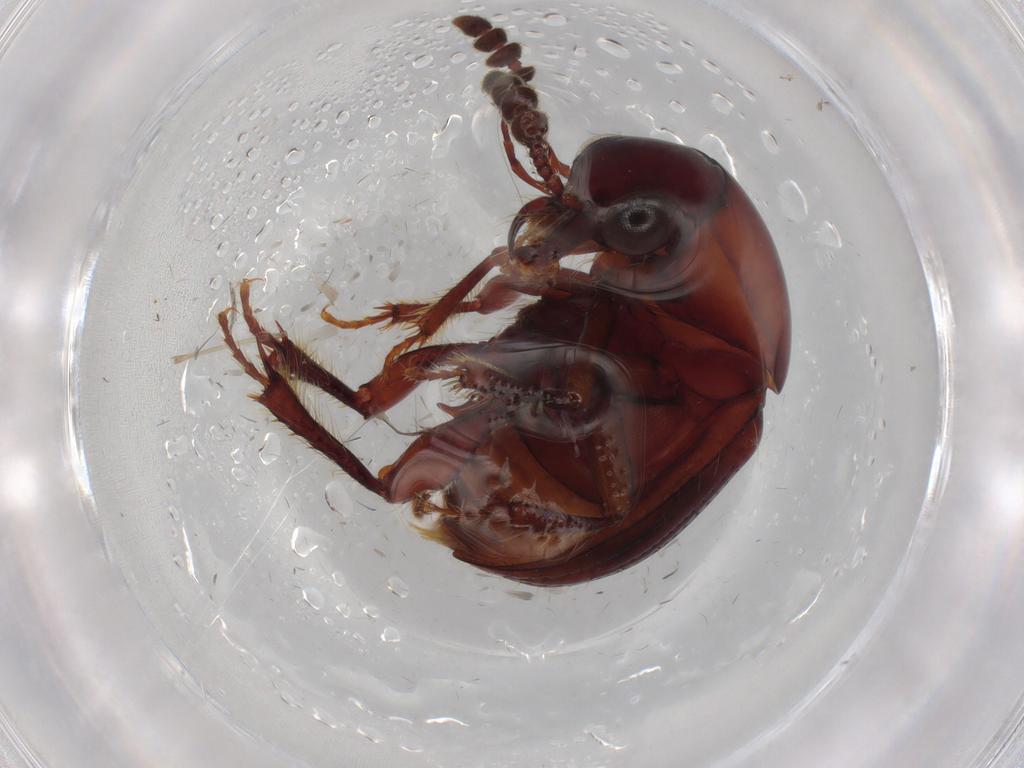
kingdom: Animalia
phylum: Arthropoda
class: Insecta
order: Coleoptera
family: Leiodidae
